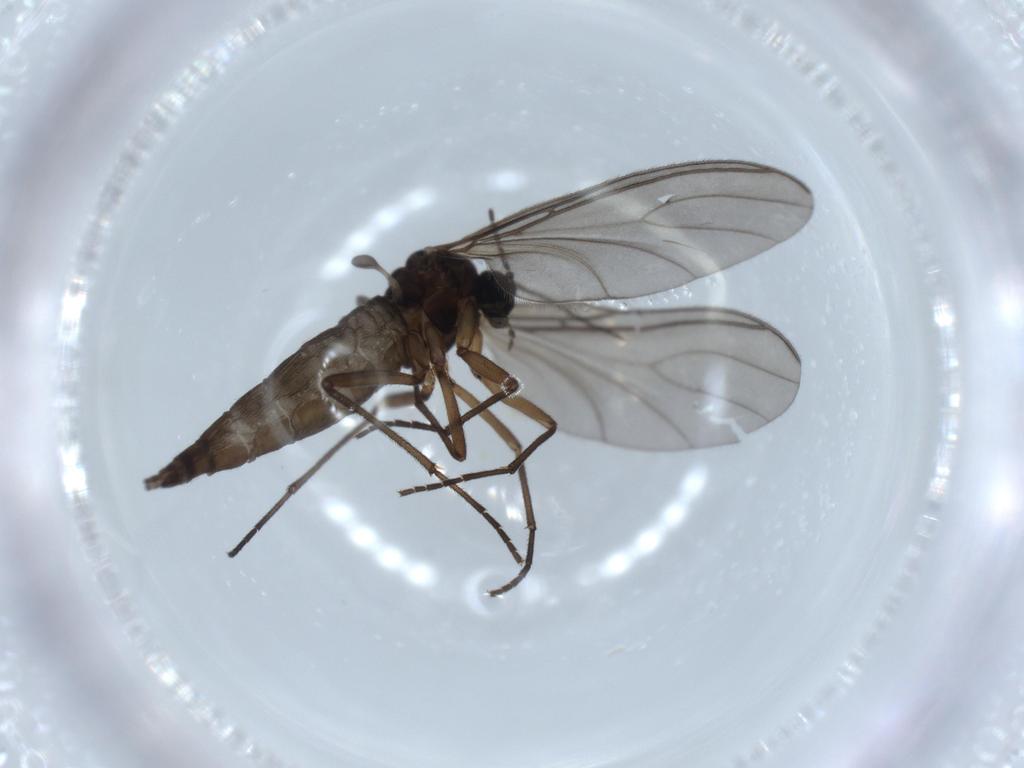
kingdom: Animalia
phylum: Arthropoda
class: Insecta
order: Diptera
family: Sciaridae
